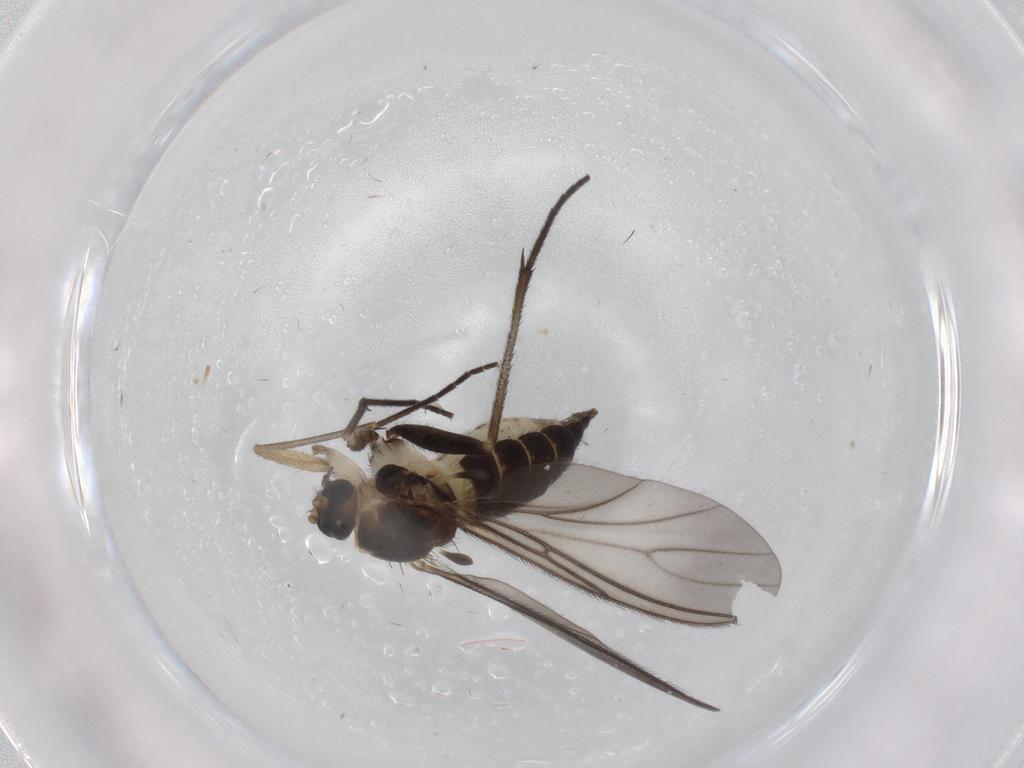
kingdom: Animalia
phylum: Arthropoda
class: Insecta
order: Diptera
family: Sciaridae
